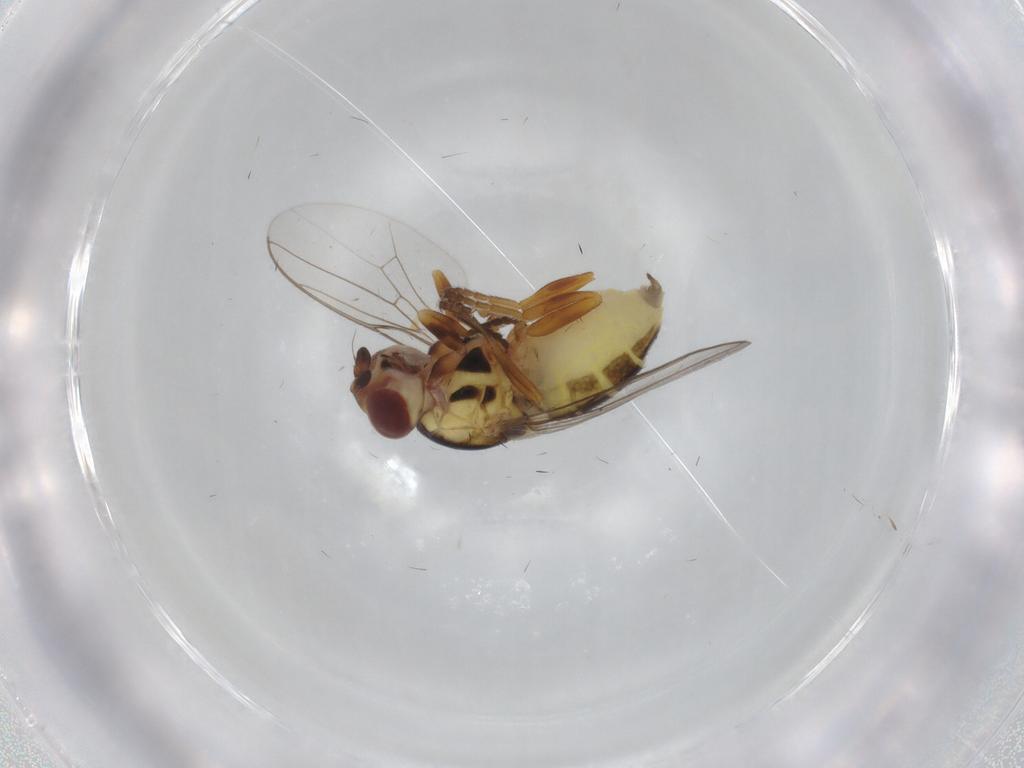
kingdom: Animalia
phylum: Arthropoda
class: Insecta
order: Diptera
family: Chloropidae
